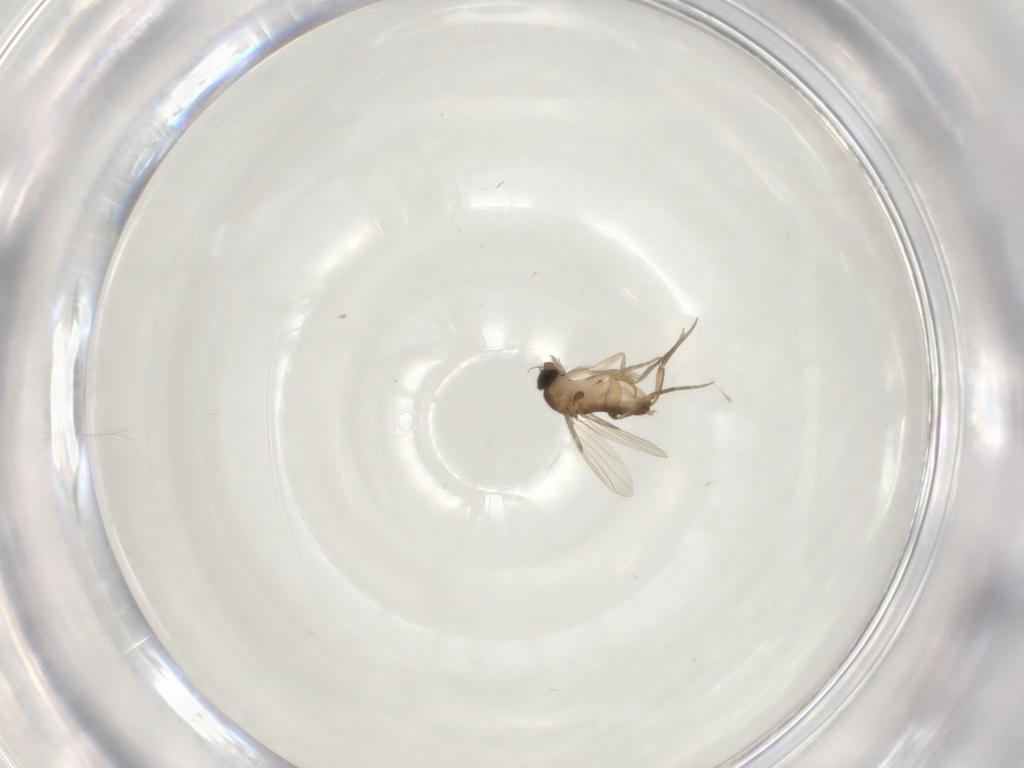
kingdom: Animalia
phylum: Arthropoda
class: Insecta
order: Diptera
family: Phoridae
